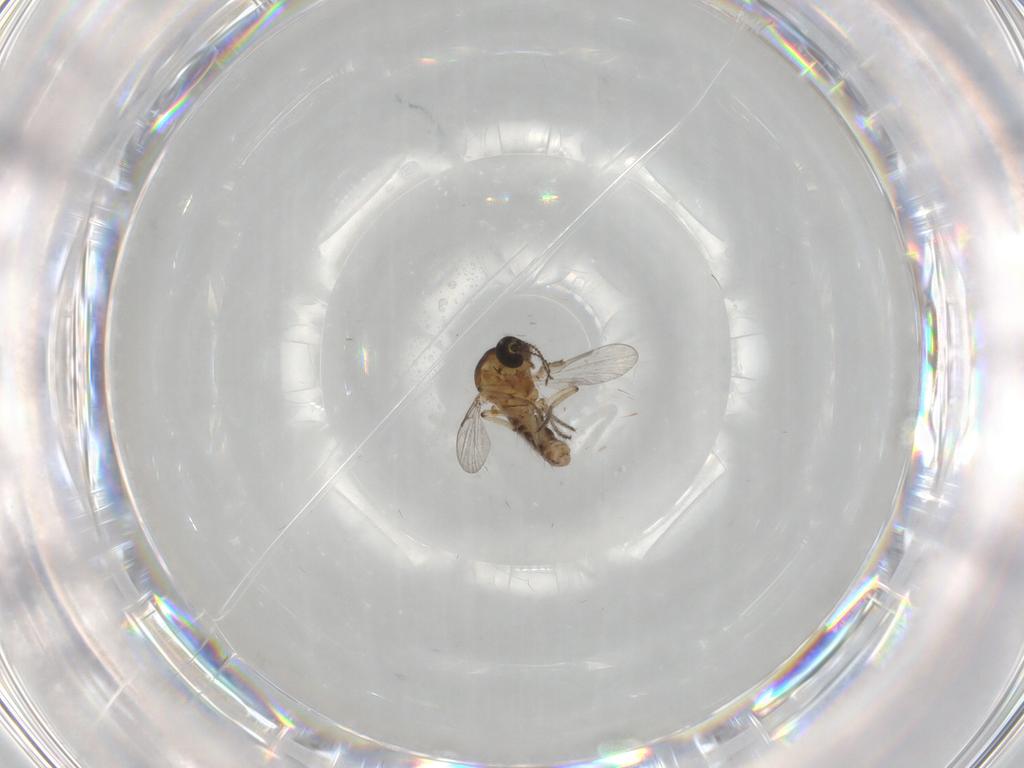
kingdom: Animalia
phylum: Arthropoda
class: Insecta
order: Diptera
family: Ceratopogonidae
